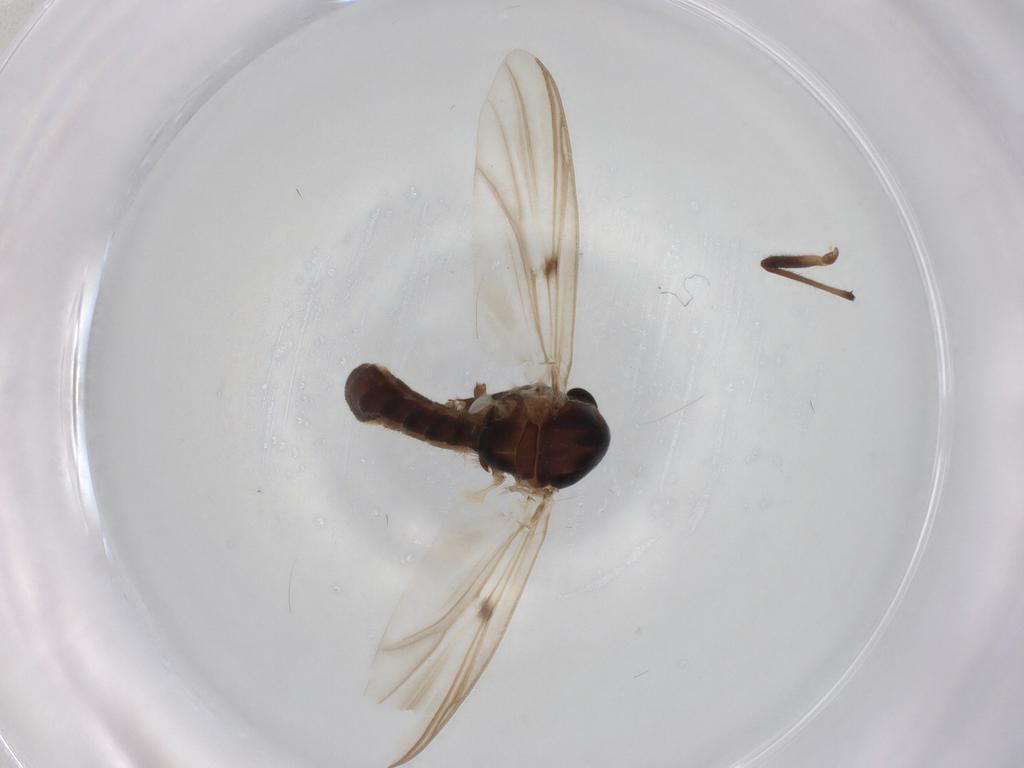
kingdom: Animalia
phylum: Arthropoda
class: Insecta
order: Diptera
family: Chironomidae
